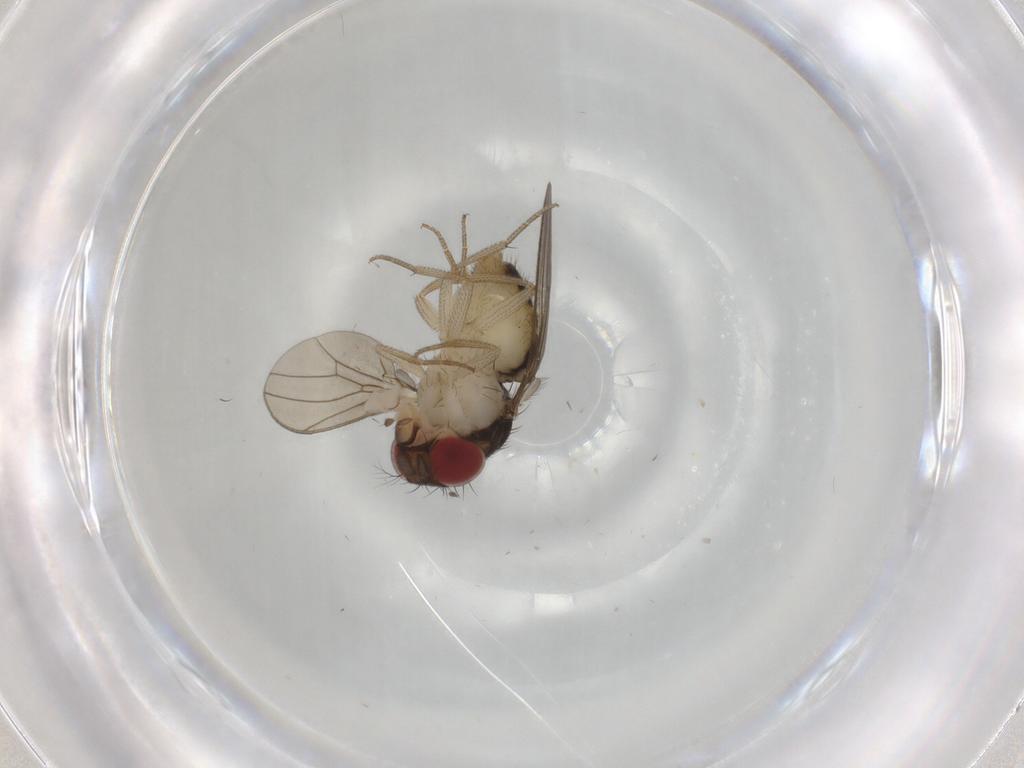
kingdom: Animalia
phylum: Arthropoda
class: Insecta
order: Diptera
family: Drosophilidae
